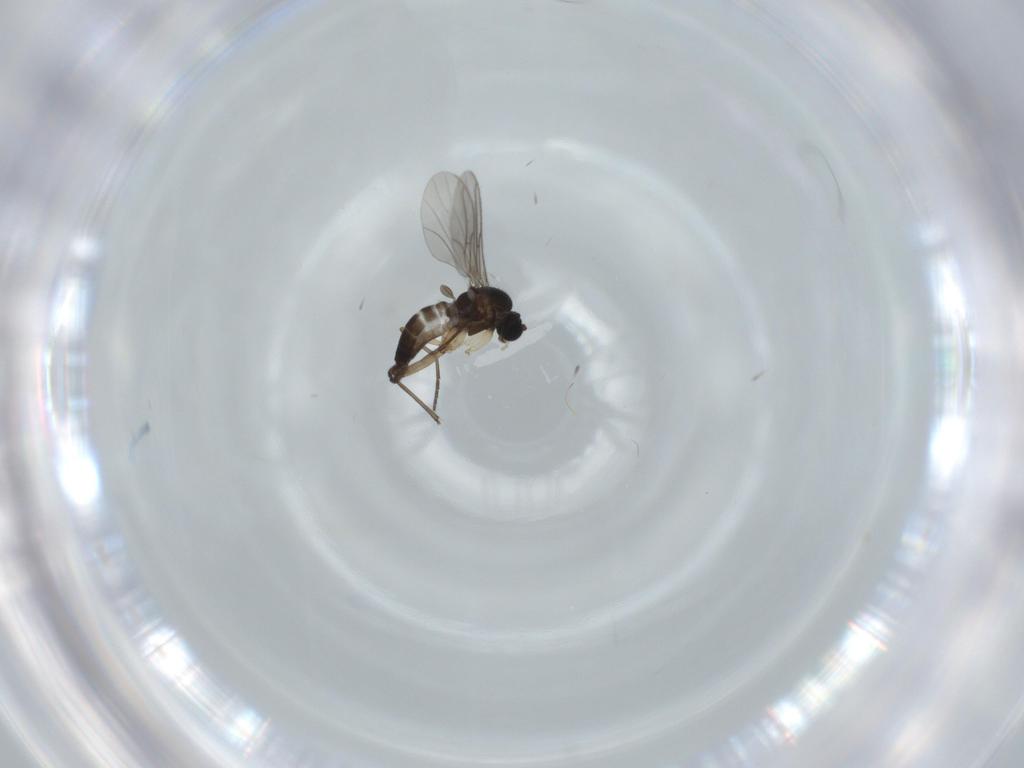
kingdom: Animalia
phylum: Arthropoda
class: Insecta
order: Diptera
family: Sciaridae
